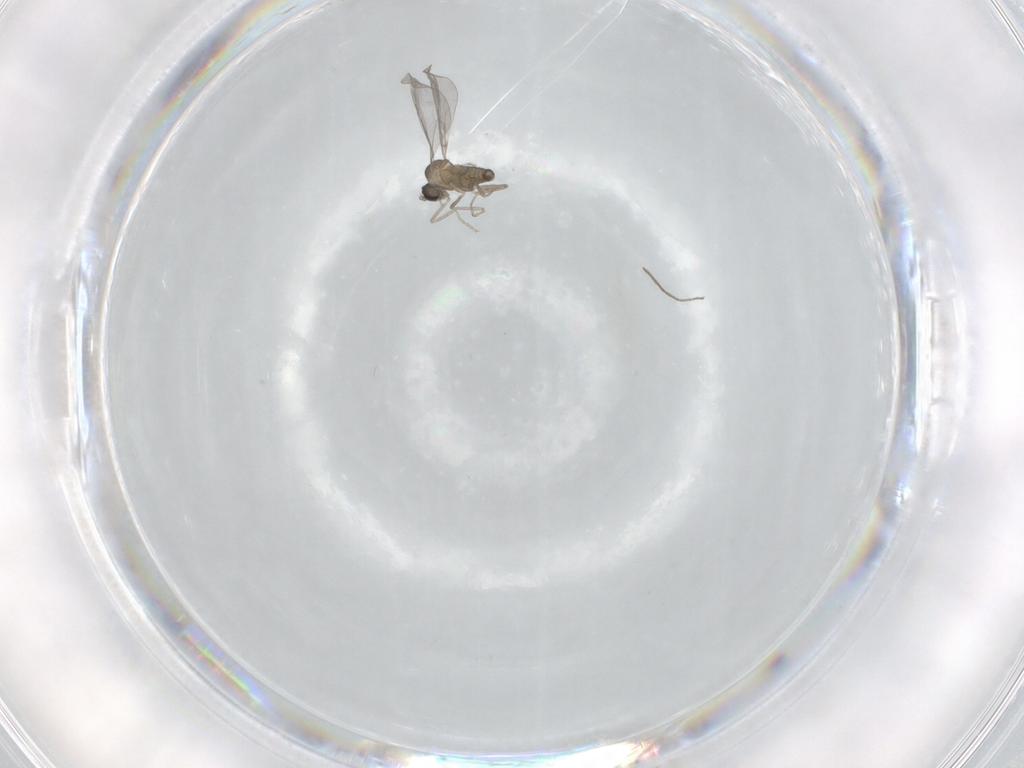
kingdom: Animalia
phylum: Arthropoda
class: Insecta
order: Diptera
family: Chironomidae
